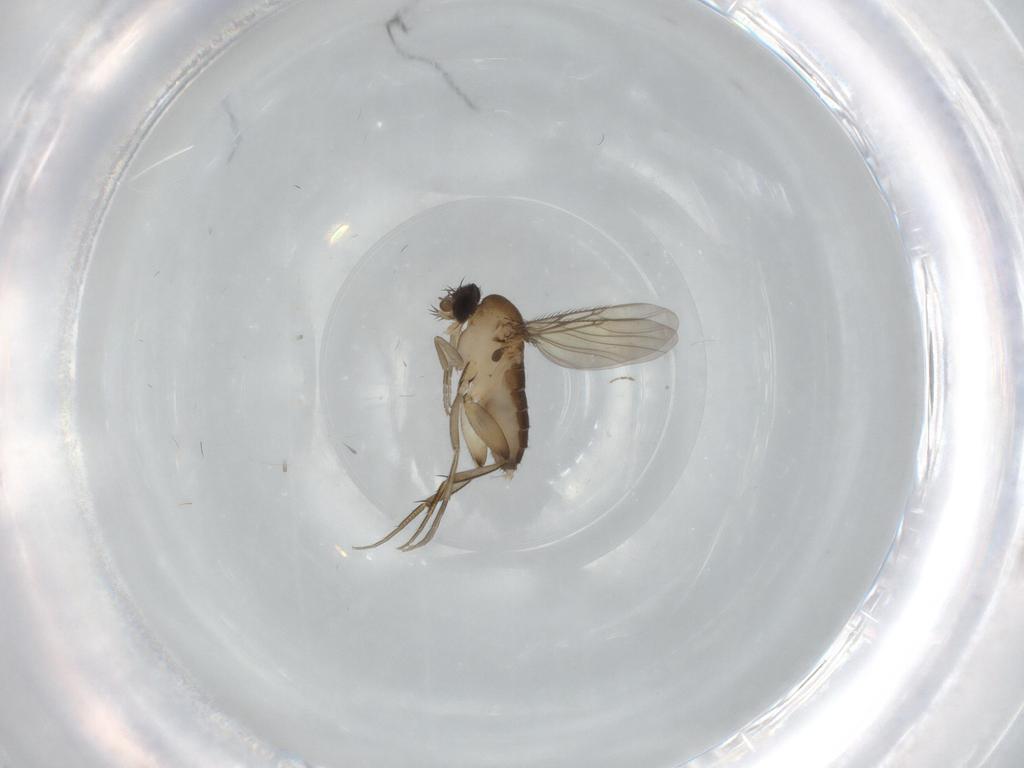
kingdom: Animalia
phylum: Arthropoda
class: Insecta
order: Diptera
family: Phoridae
